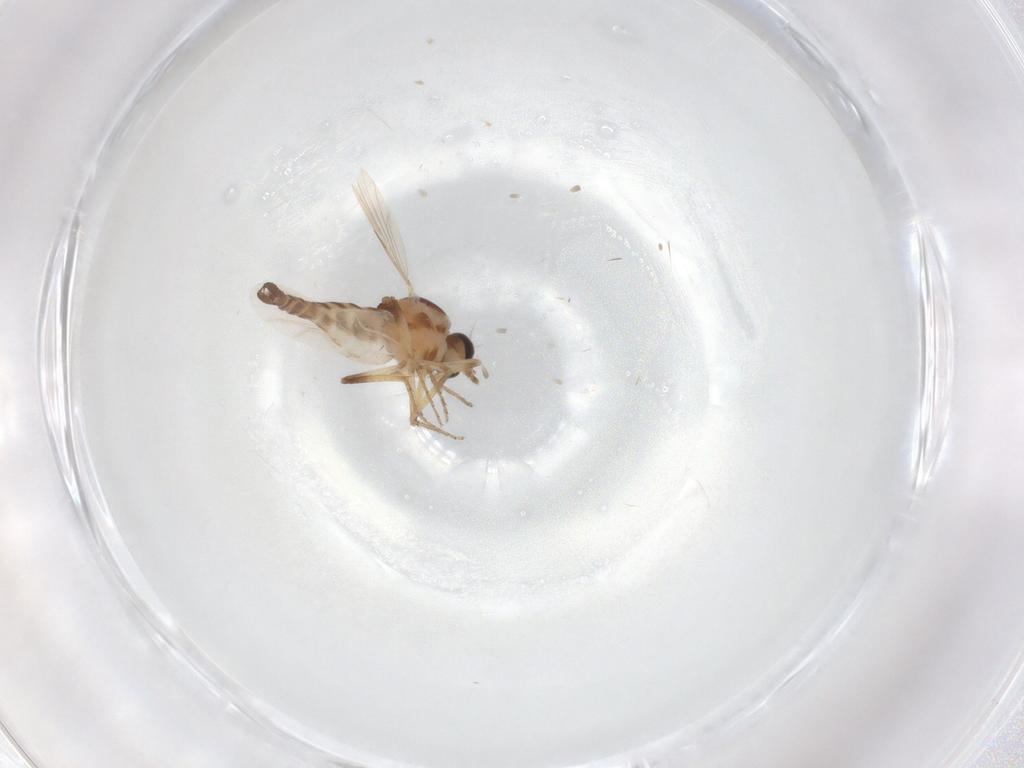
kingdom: Animalia
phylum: Arthropoda
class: Insecta
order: Diptera
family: Ceratopogonidae
